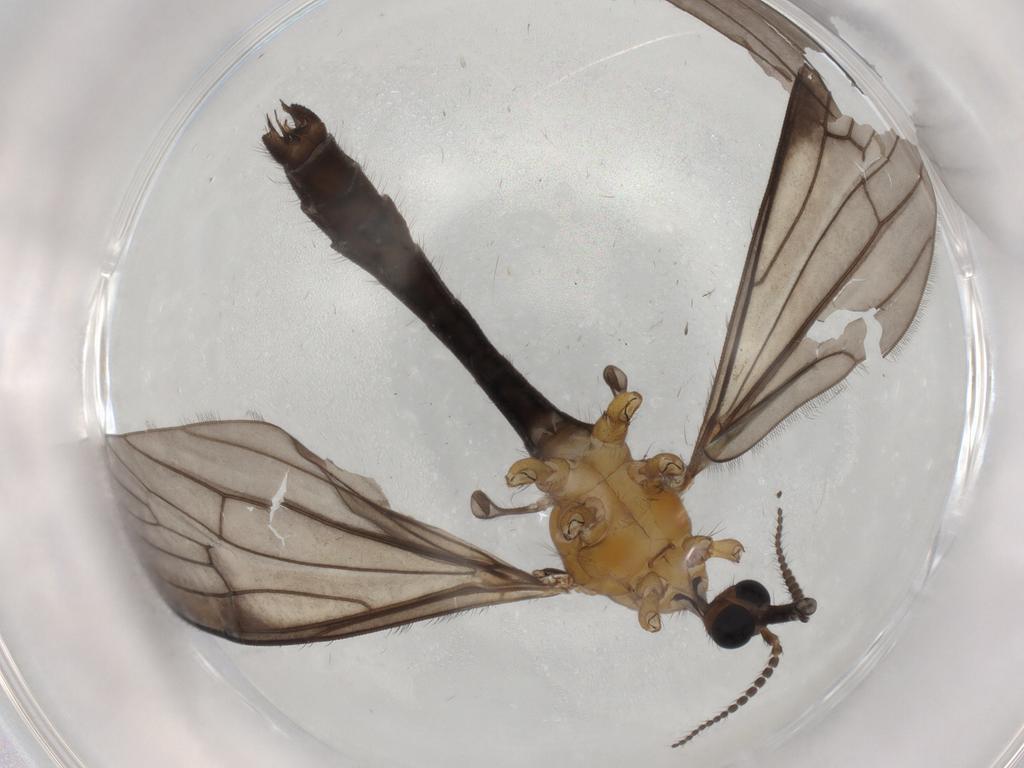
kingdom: Animalia
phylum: Arthropoda
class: Insecta
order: Diptera
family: Limoniidae
